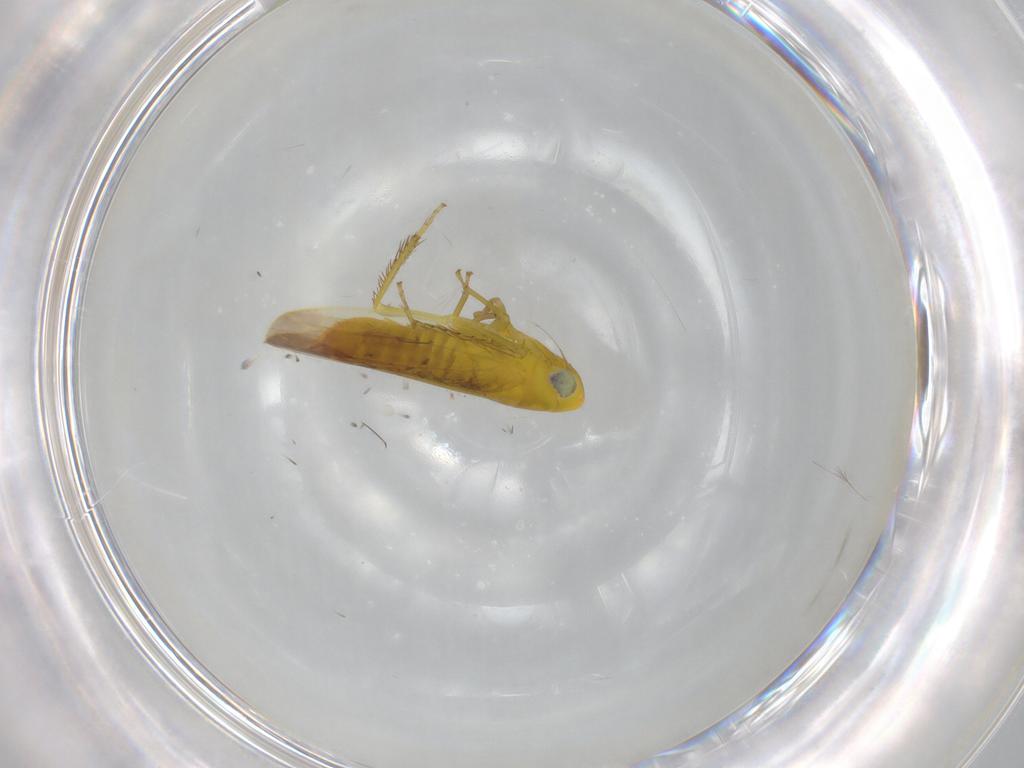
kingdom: Animalia
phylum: Arthropoda
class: Insecta
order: Hemiptera
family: Cicadellidae
